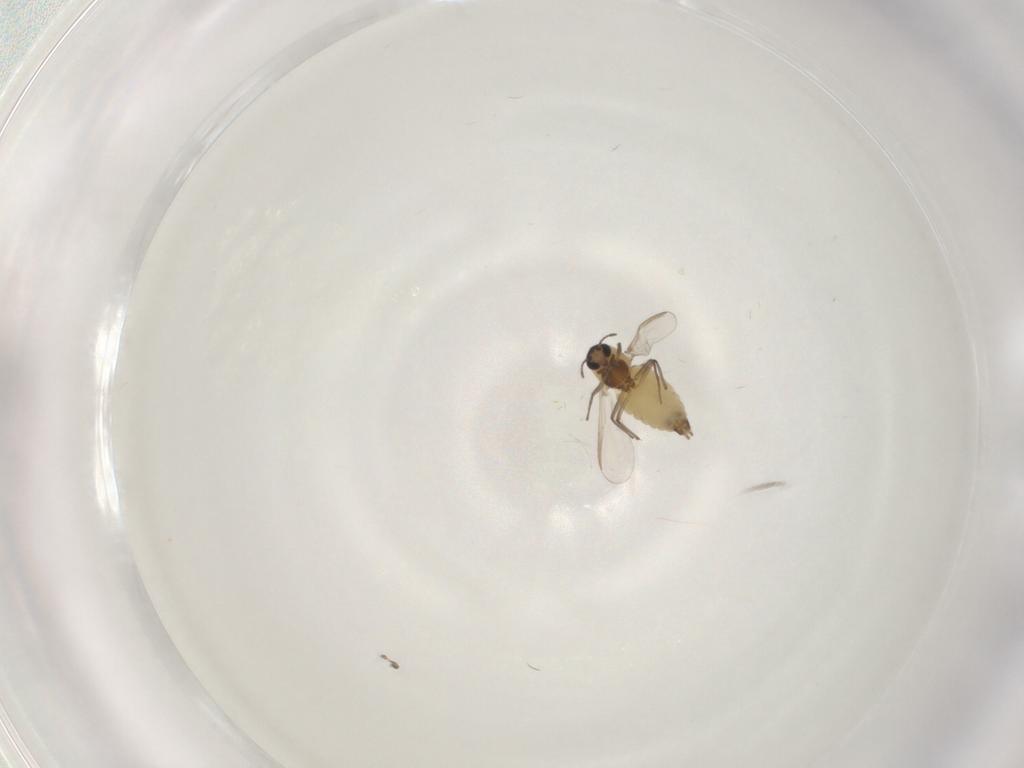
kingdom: Animalia
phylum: Arthropoda
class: Insecta
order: Diptera
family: Chironomidae
